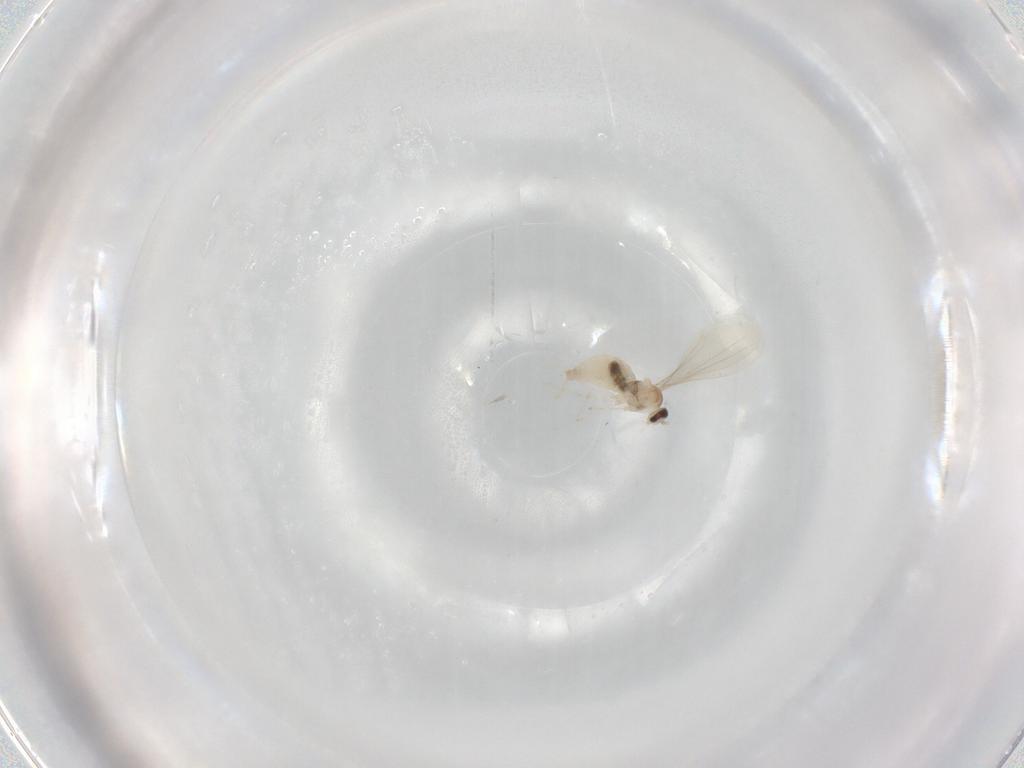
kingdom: Animalia
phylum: Arthropoda
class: Insecta
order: Diptera
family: Cecidomyiidae
